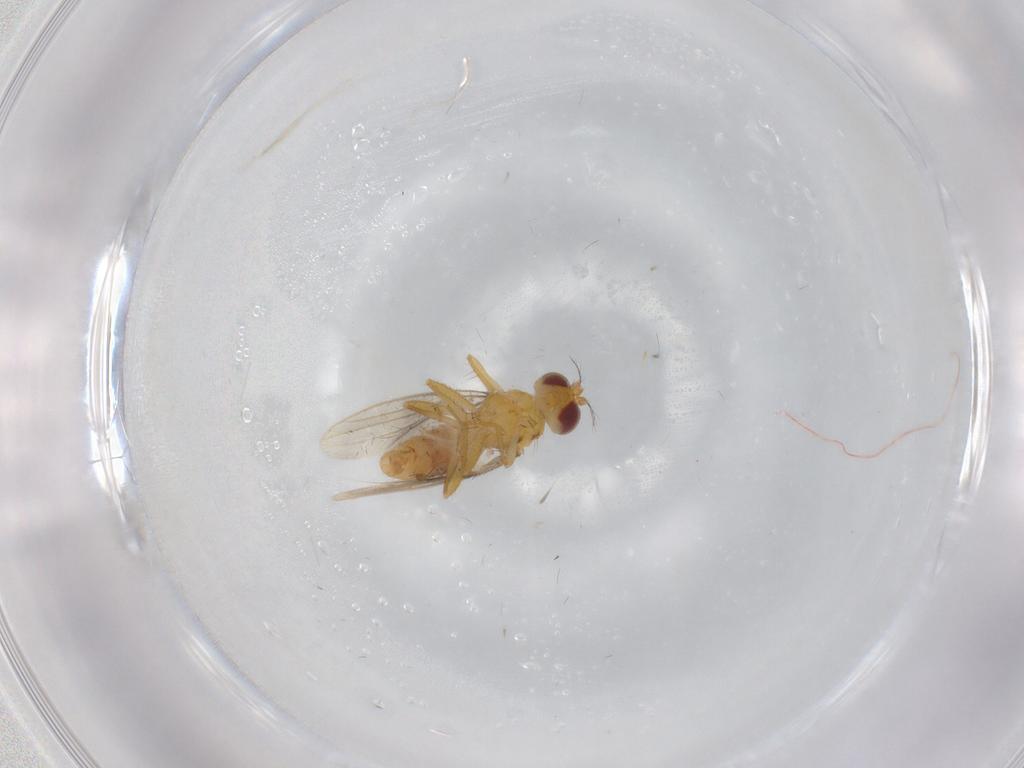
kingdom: Animalia
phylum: Arthropoda
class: Insecta
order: Diptera
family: Periscelididae
